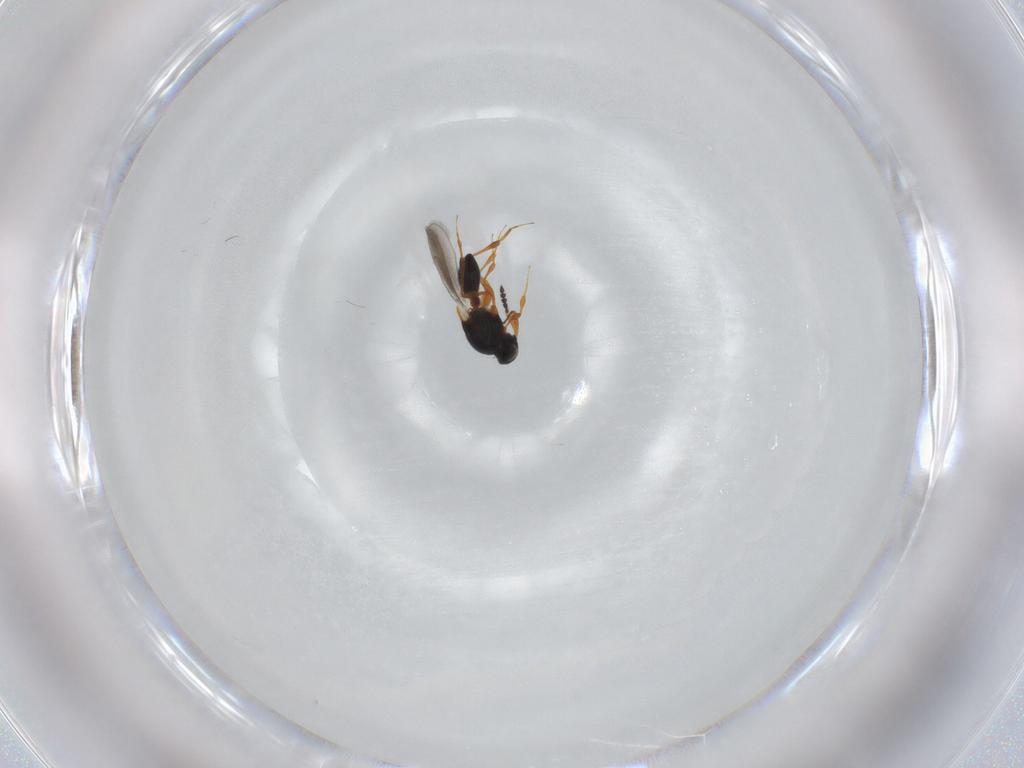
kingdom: Animalia
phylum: Arthropoda
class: Insecta
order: Hymenoptera
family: Platygastridae
